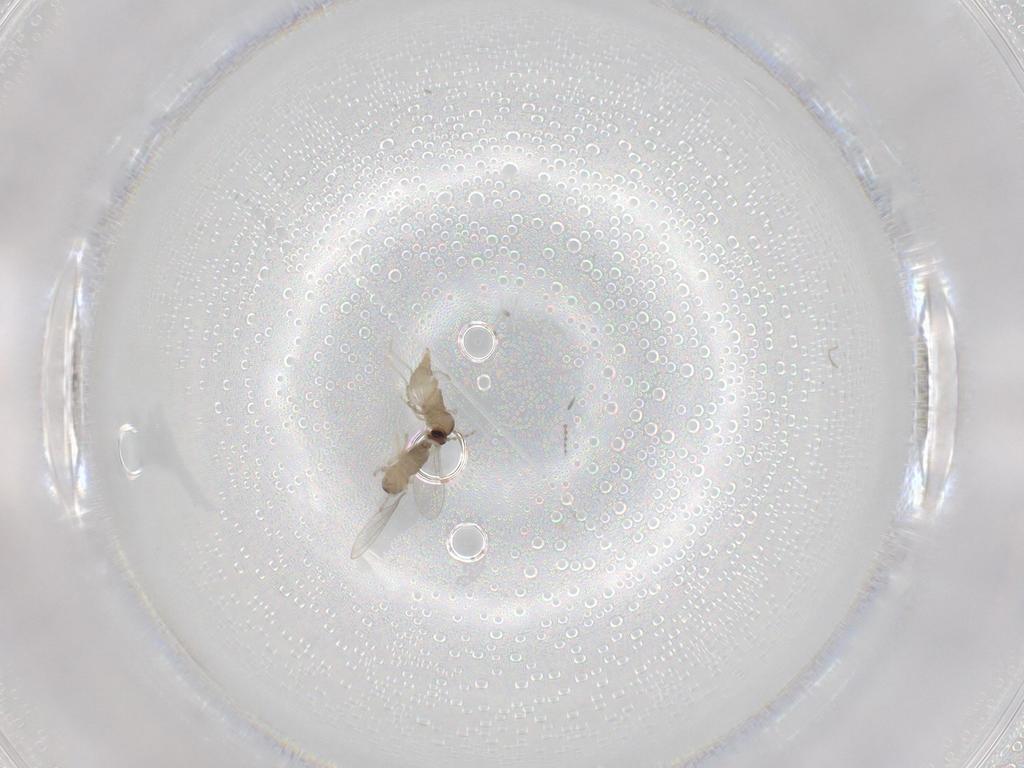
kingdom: Animalia
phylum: Arthropoda
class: Insecta
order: Diptera
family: Cecidomyiidae
